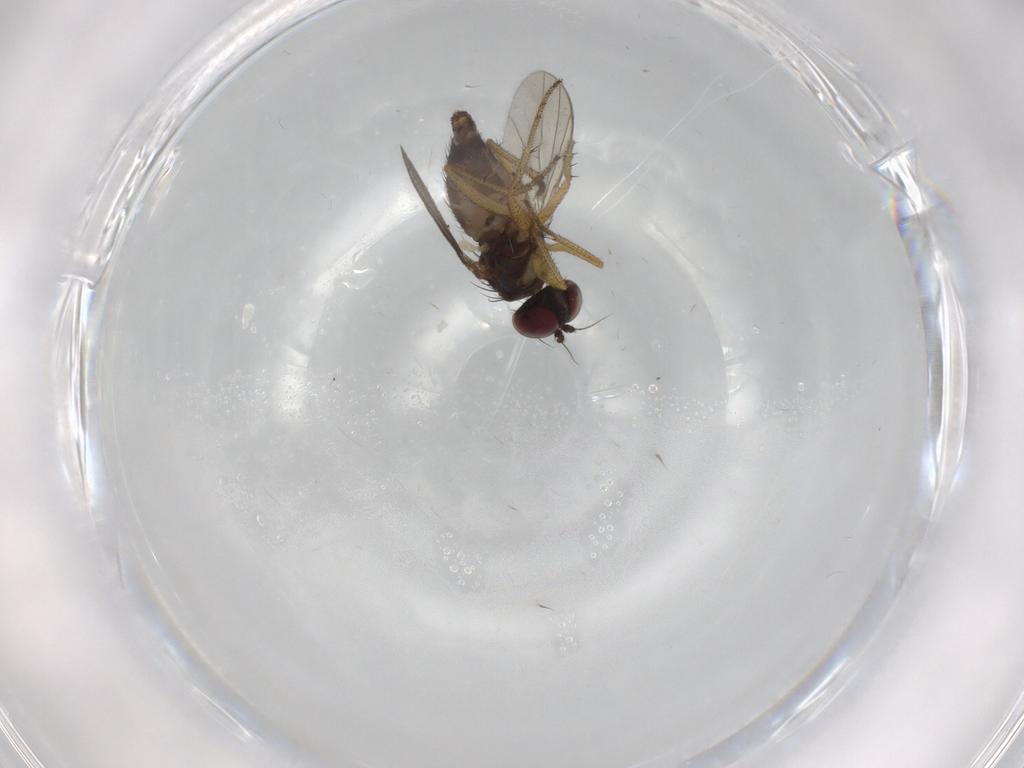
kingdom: Animalia
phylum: Arthropoda
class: Insecta
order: Diptera
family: Dolichopodidae
